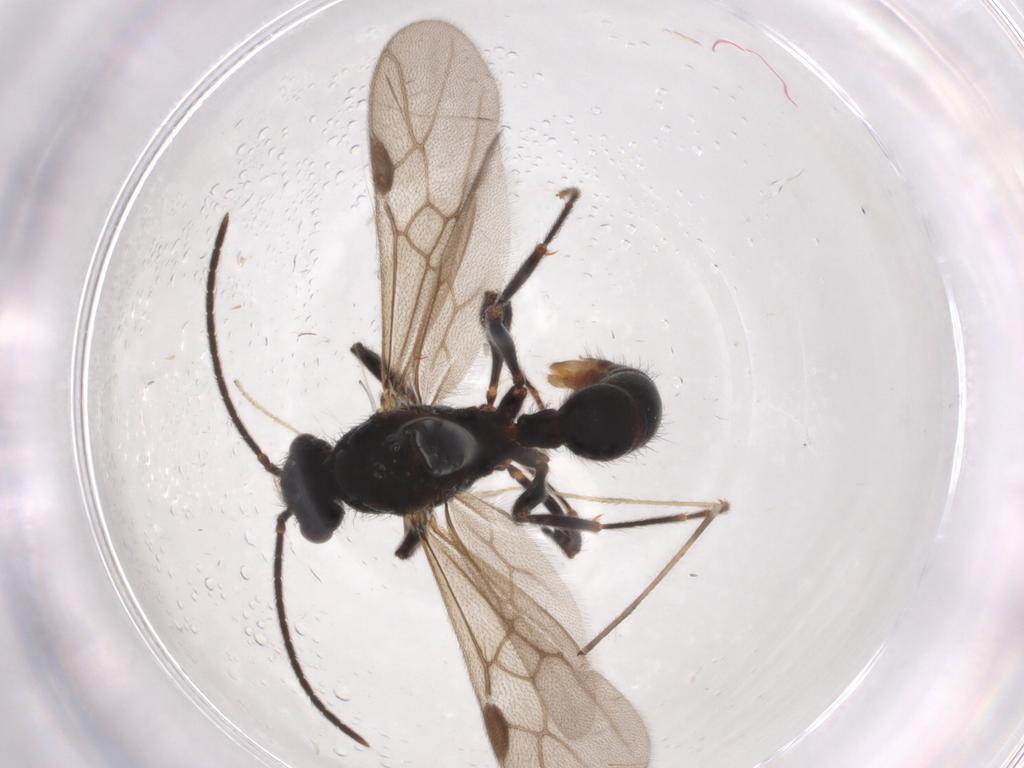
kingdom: Animalia
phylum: Arthropoda
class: Insecta
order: Hymenoptera
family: Formicidae
